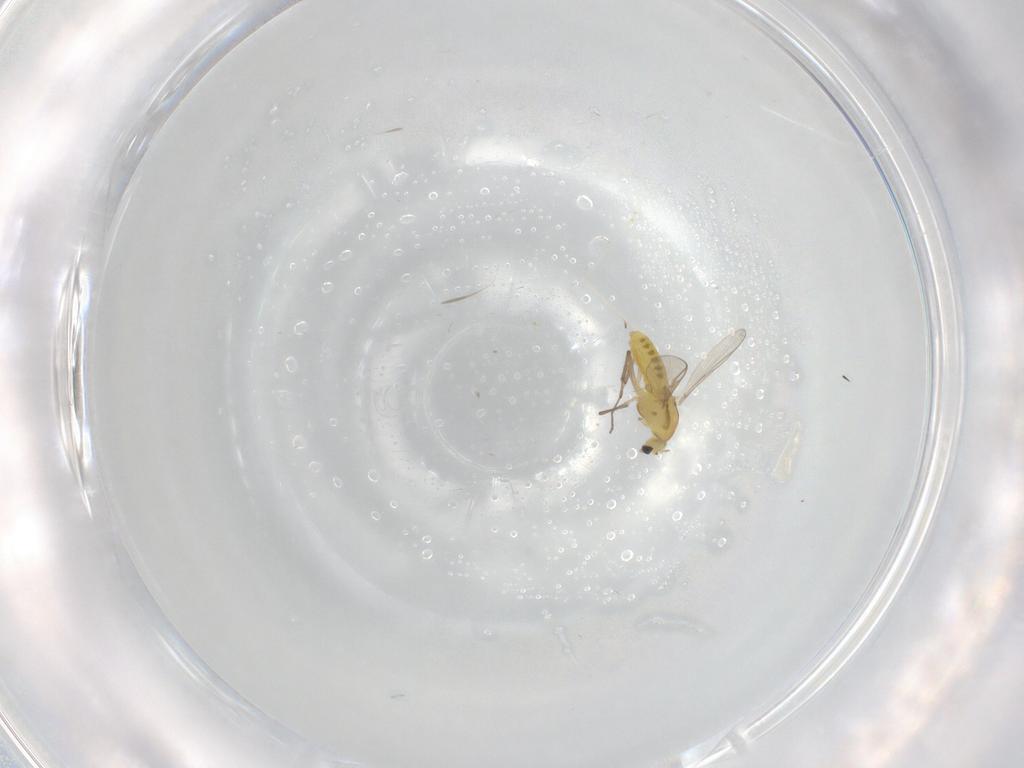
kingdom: Animalia
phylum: Arthropoda
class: Insecta
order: Diptera
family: Chironomidae
